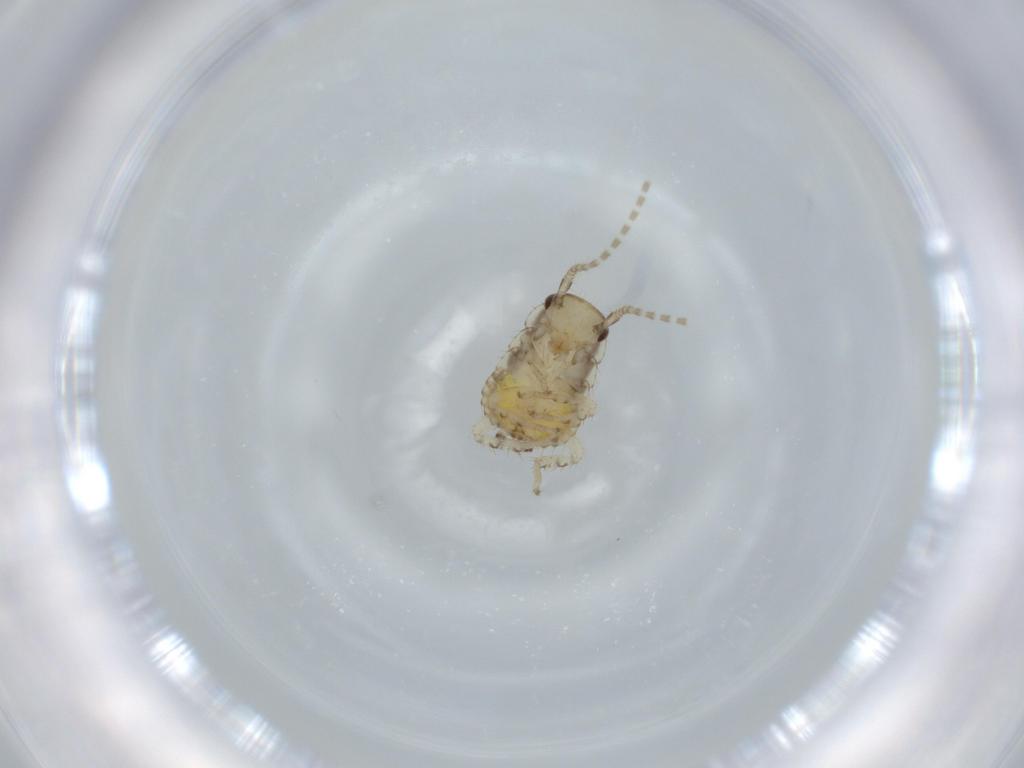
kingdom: Animalia
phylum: Arthropoda
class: Insecta
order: Blattodea
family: Ectobiidae
